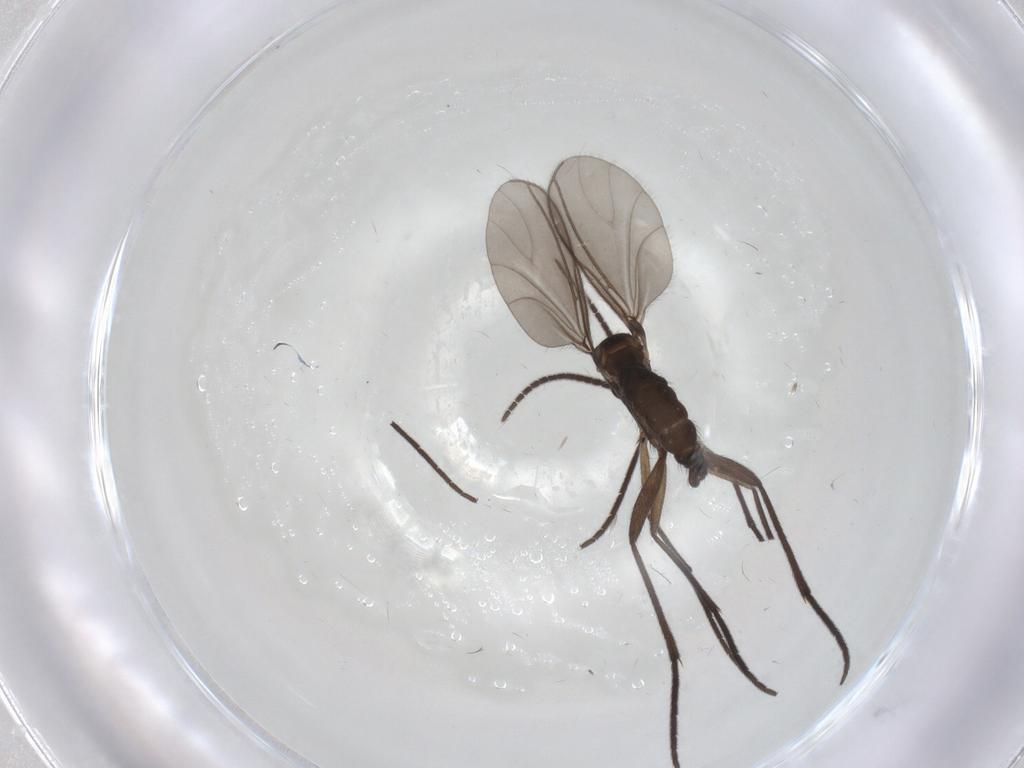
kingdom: Animalia
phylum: Arthropoda
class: Insecta
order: Diptera
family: Sciaridae
